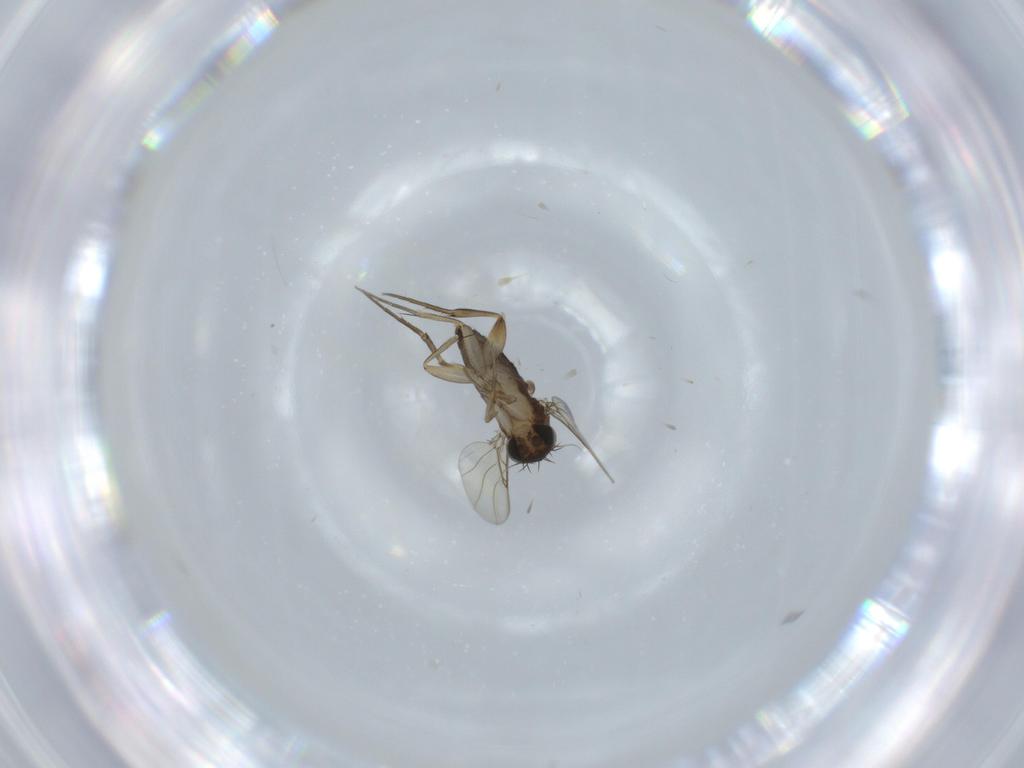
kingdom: Animalia
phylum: Arthropoda
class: Insecta
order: Diptera
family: Phoridae
